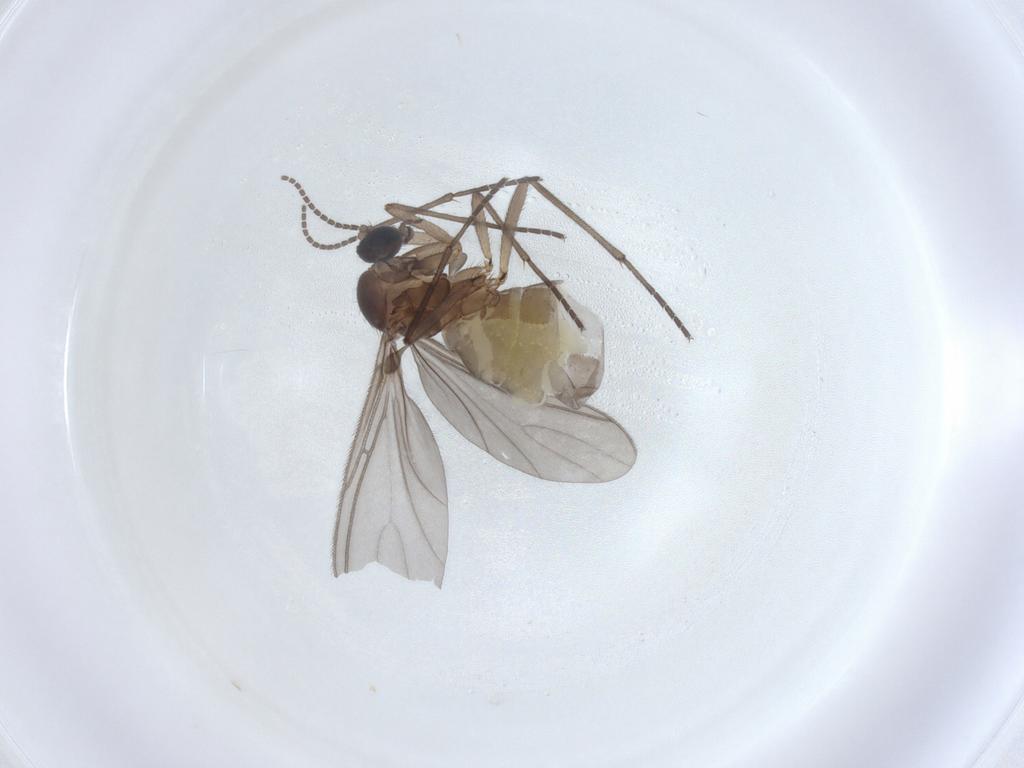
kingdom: Animalia
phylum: Arthropoda
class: Insecta
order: Diptera
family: Sciaridae
